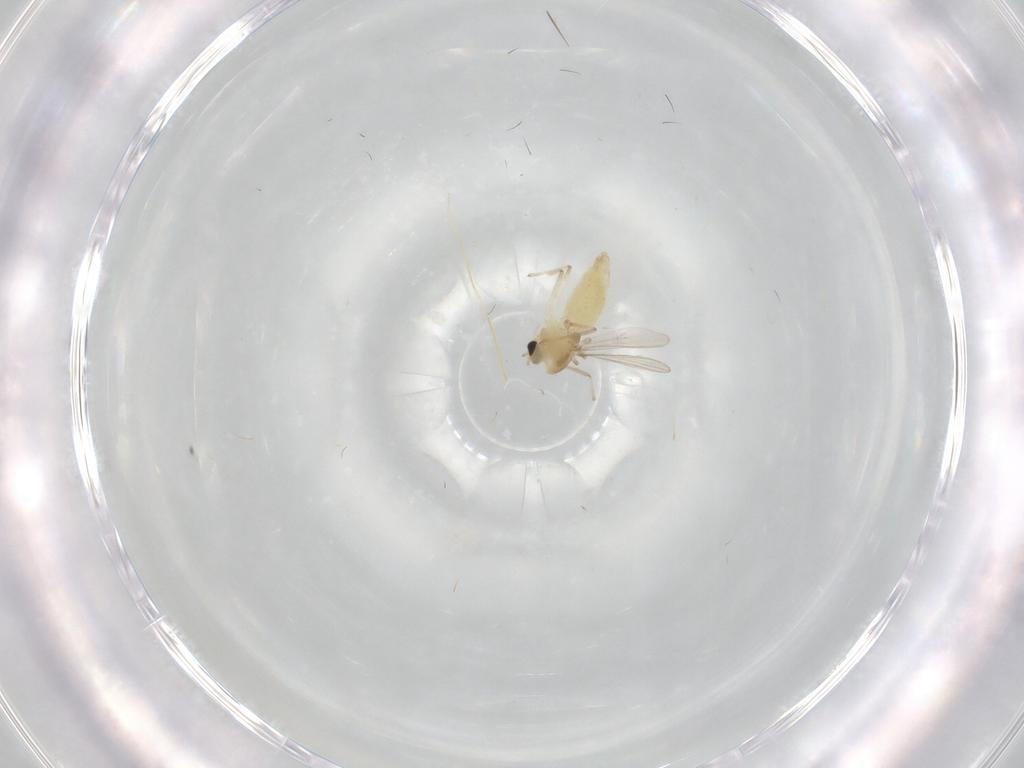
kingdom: Animalia
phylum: Arthropoda
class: Insecta
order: Diptera
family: Chironomidae
